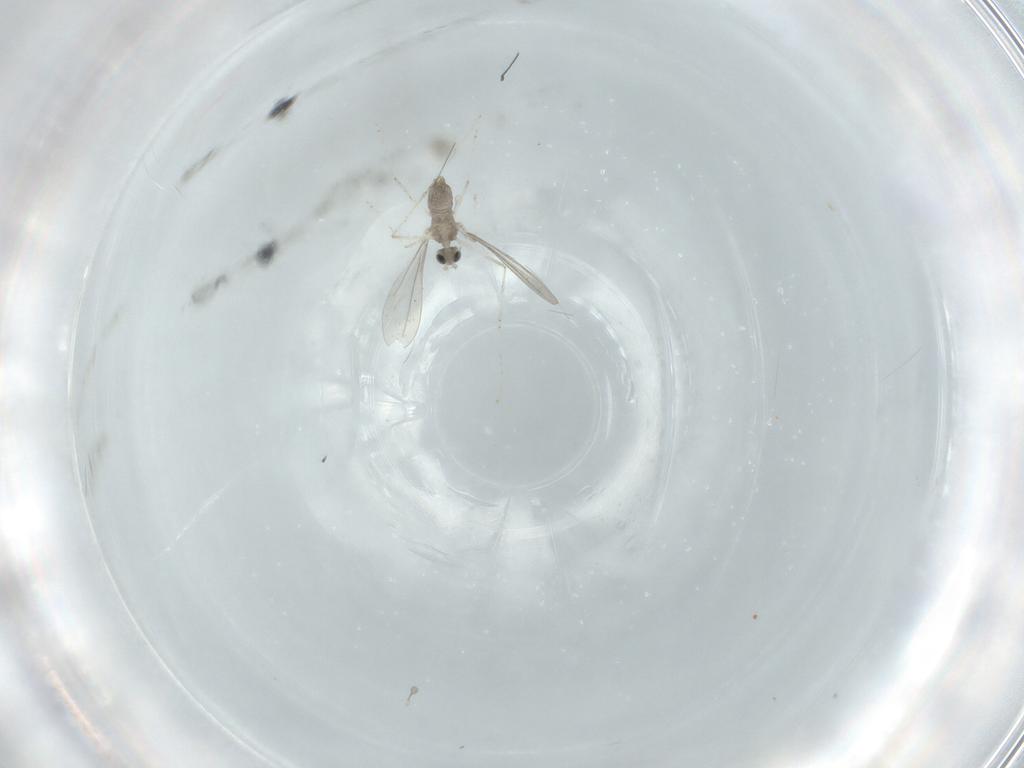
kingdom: Animalia
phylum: Arthropoda
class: Insecta
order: Diptera
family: Cecidomyiidae
